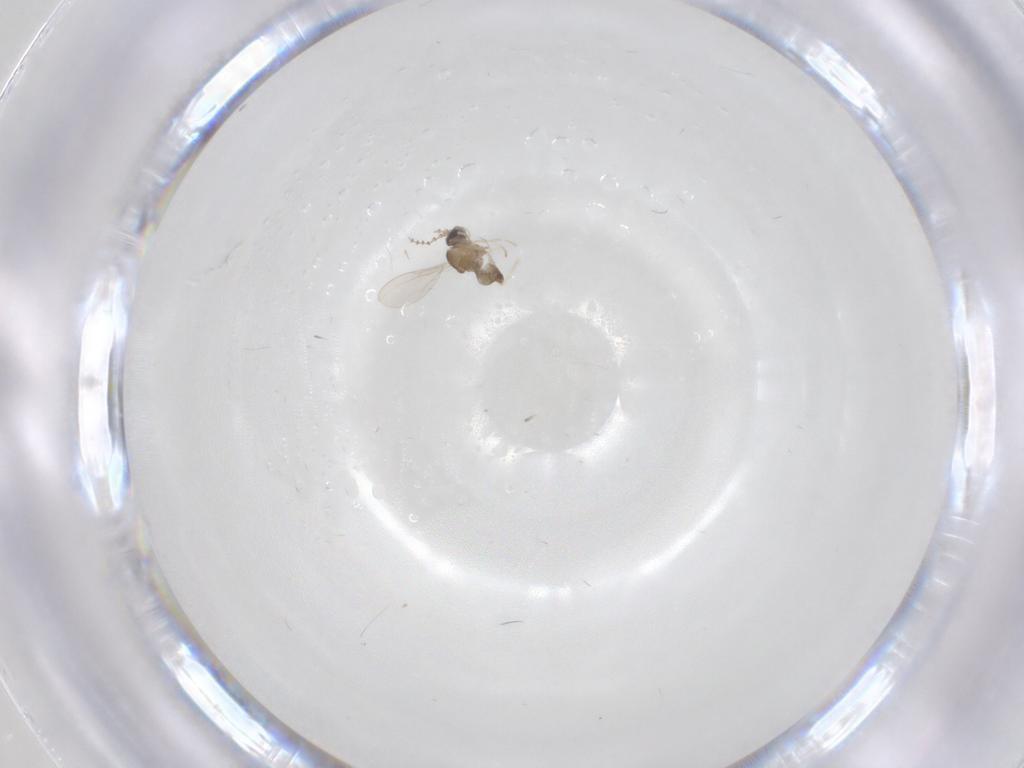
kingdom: Animalia
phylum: Arthropoda
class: Insecta
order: Diptera
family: Cecidomyiidae
